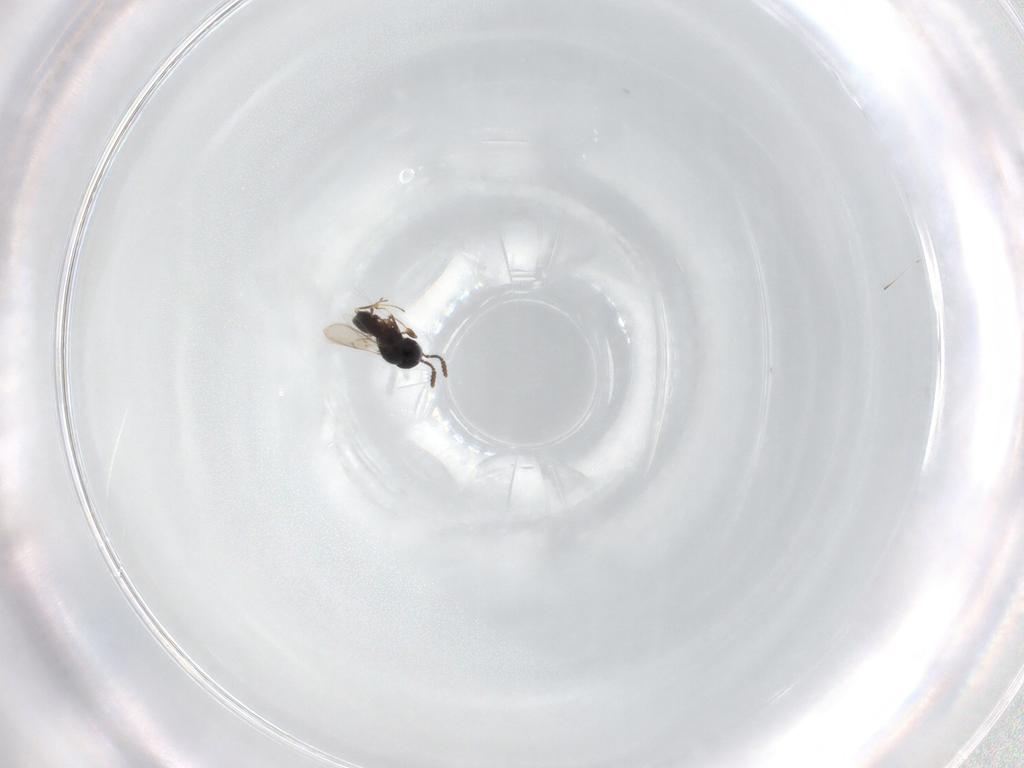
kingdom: Animalia
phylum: Arthropoda
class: Insecta
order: Hymenoptera
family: Scelionidae
